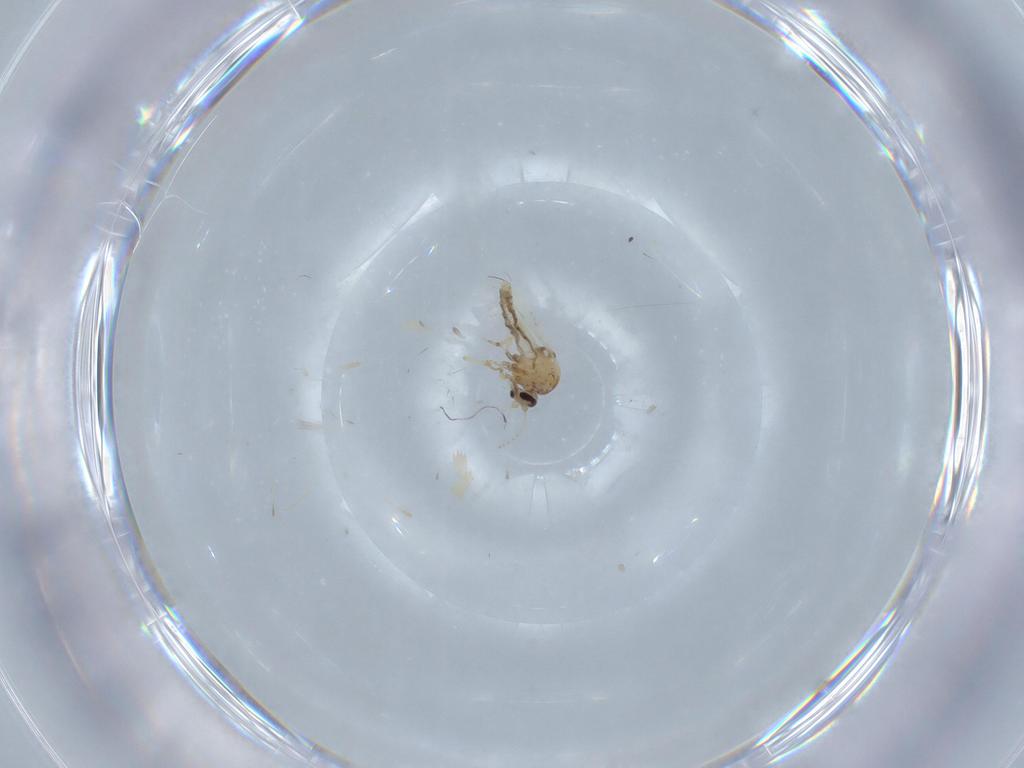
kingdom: Animalia
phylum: Arthropoda
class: Insecta
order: Diptera
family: Ceratopogonidae
